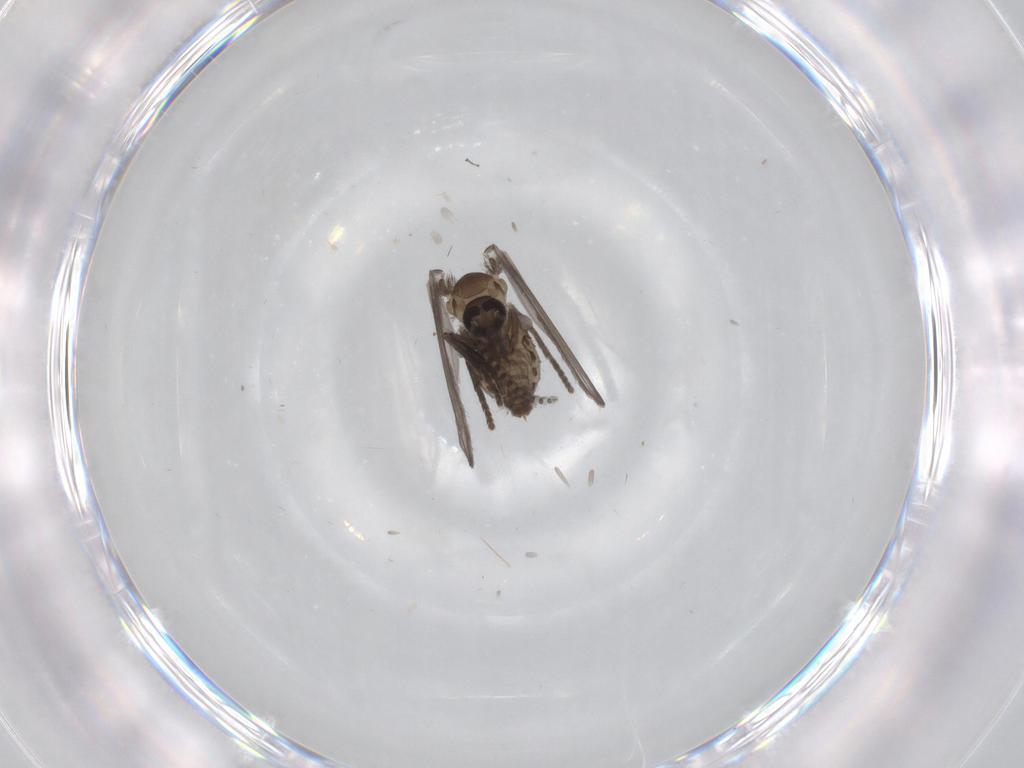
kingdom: Animalia
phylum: Arthropoda
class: Insecta
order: Diptera
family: Psychodidae
